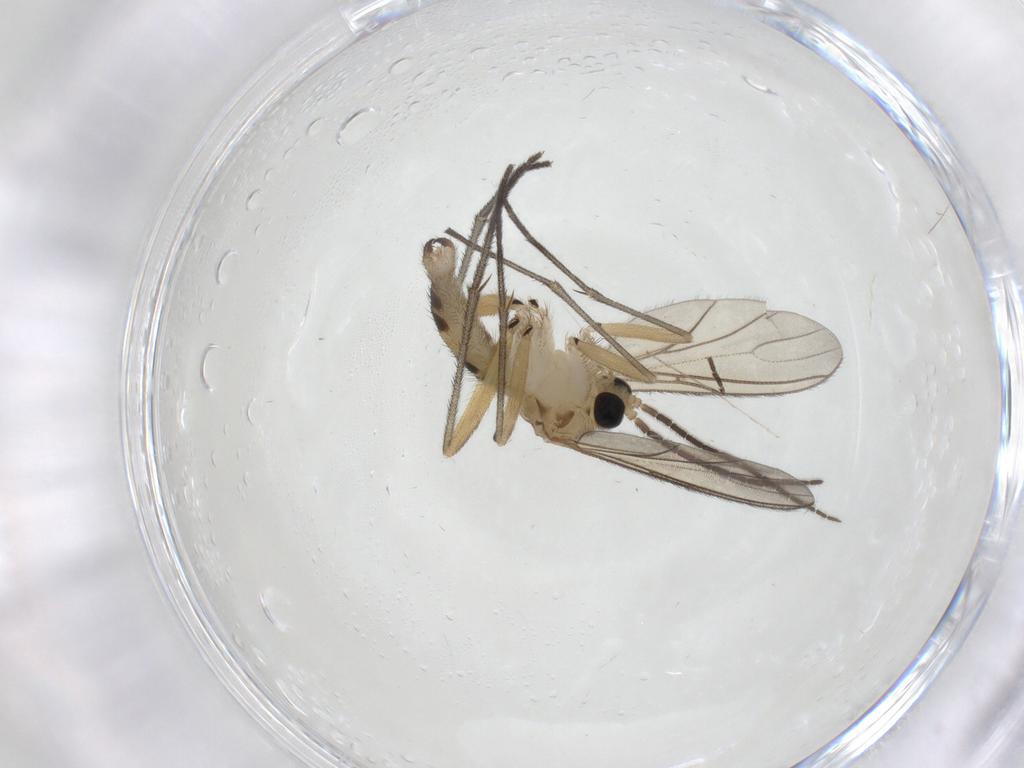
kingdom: Animalia
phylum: Arthropoda
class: Insecta
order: Diptera
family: Sciaridae
